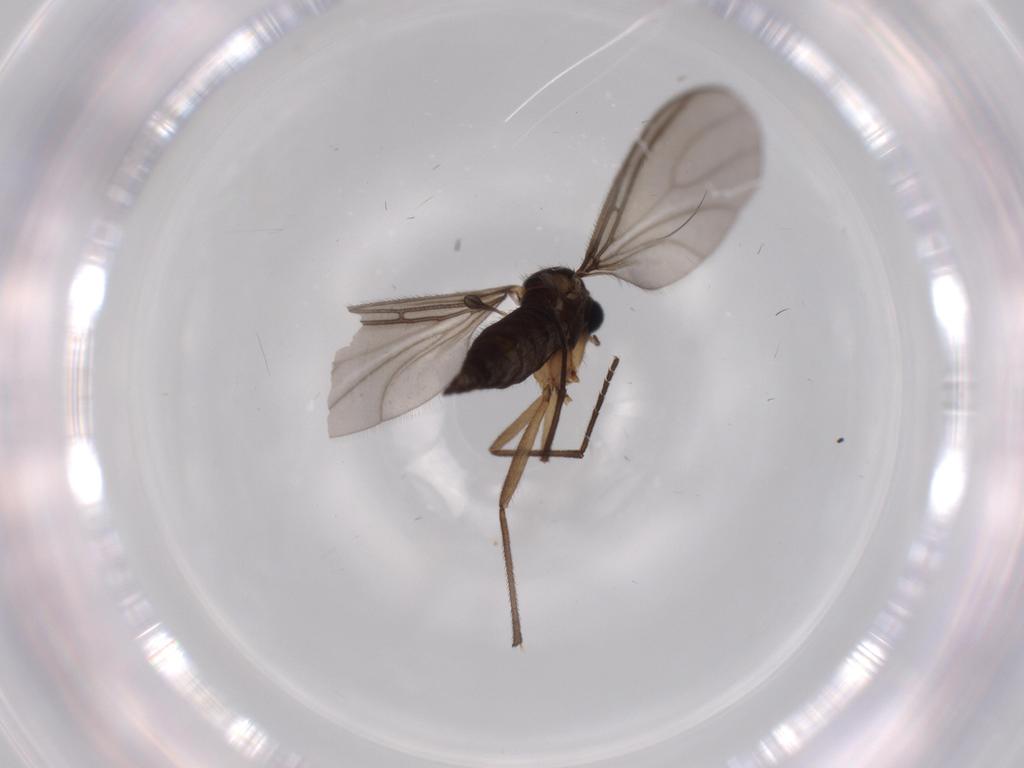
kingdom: Animalia
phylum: Arthropoda
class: Insecta
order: Diptera
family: Sciaridae
